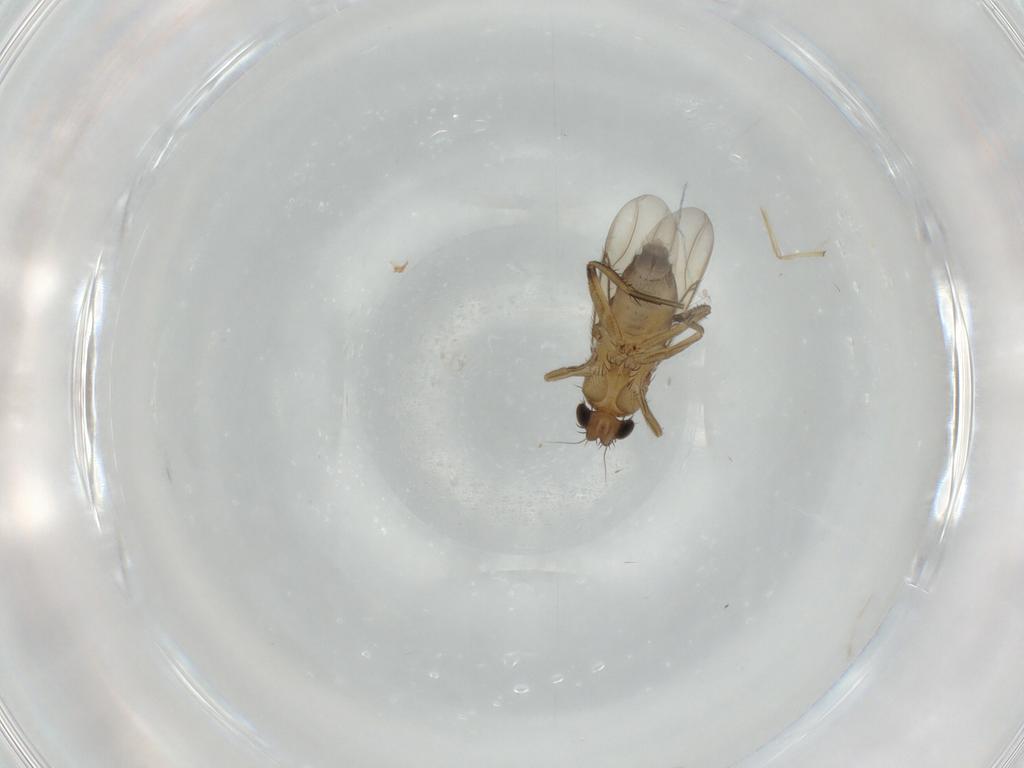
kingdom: Animalia
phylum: Arthropoda
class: Insecta
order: Diptera
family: Phoridae
